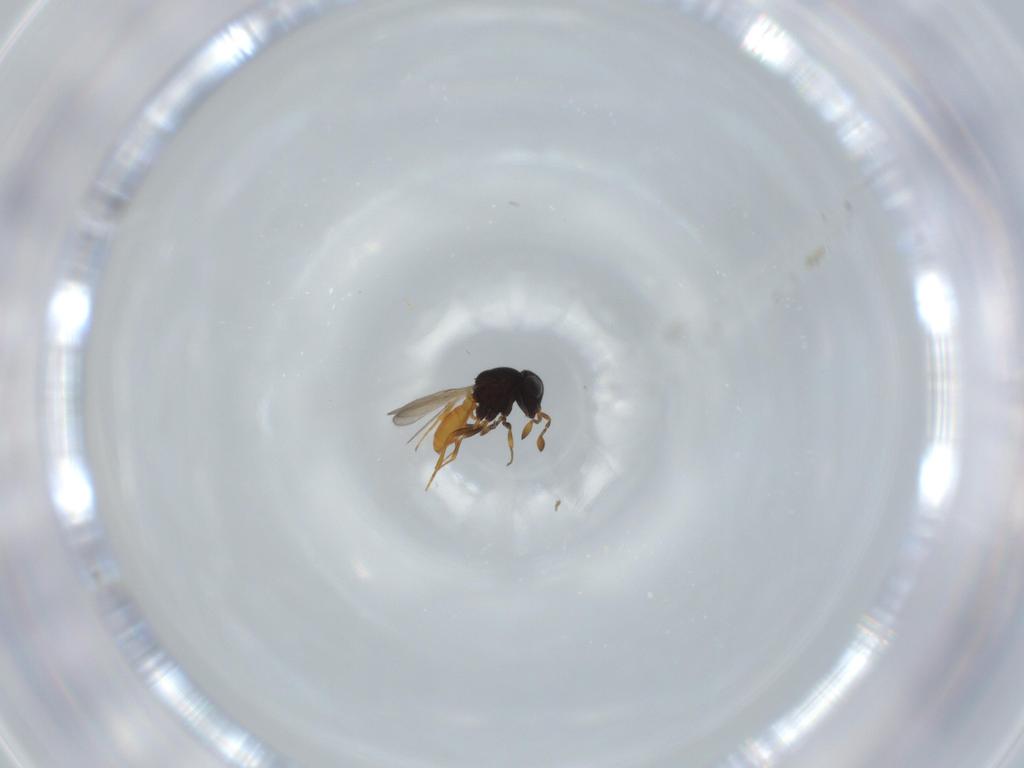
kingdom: Animalia
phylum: Arthropoda
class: Insecta
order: Hymenoptera
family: Scelionidae
